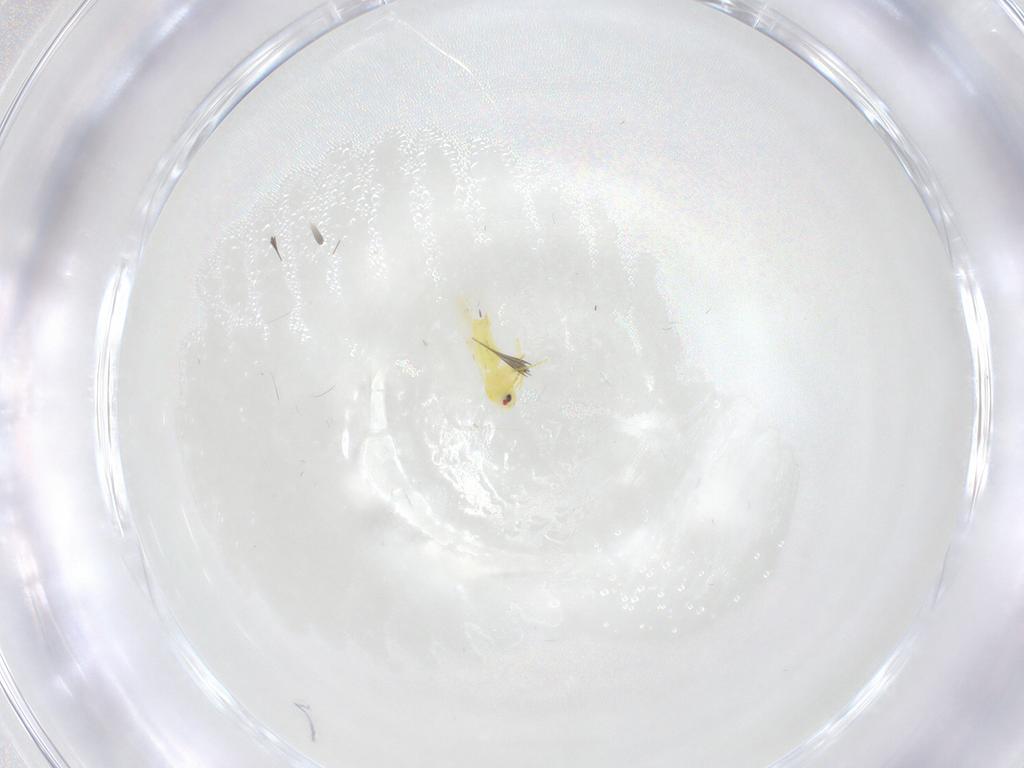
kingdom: Animalia
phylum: Arthropoda
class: Insecta
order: Hemiptera
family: Aleyrodidae
